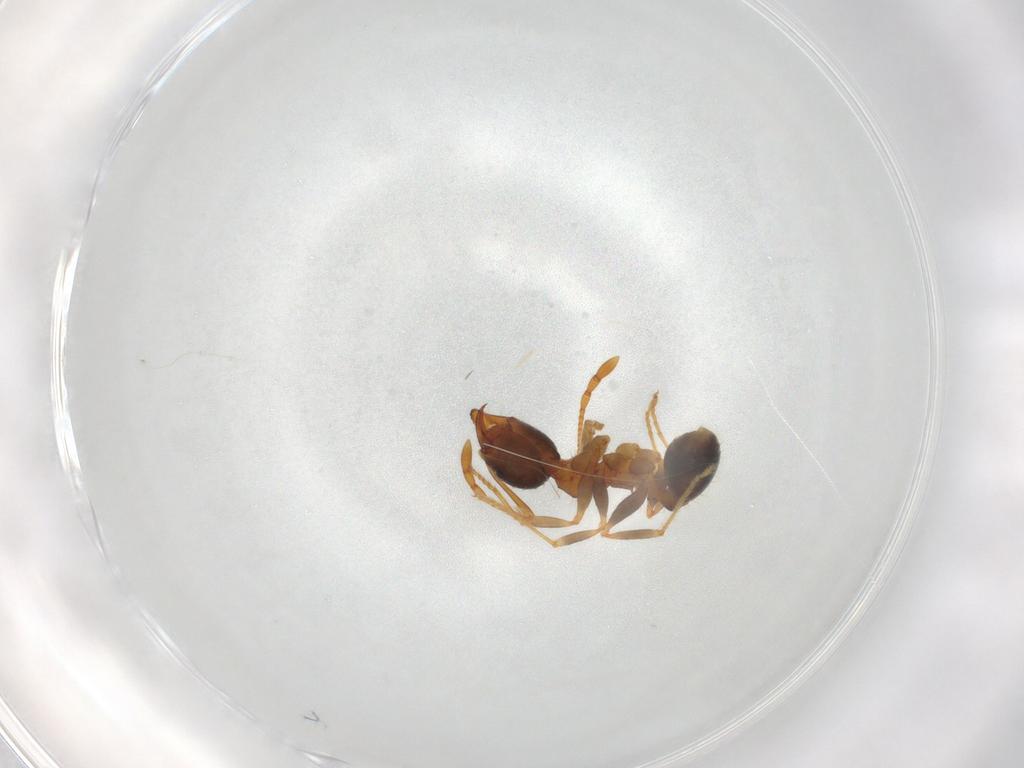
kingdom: Animalia
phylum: Arthropoda
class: Insecta
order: Hymenoptera
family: Formicidae
